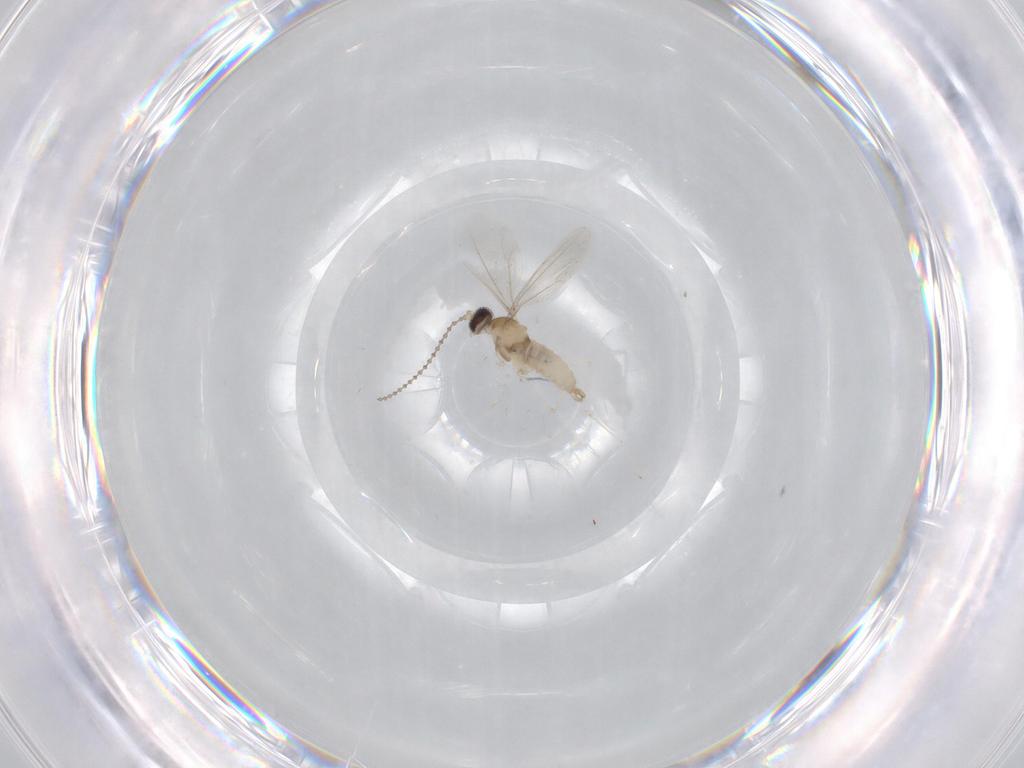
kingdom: Animalia
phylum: Arthropoda
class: Insecta
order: Diptera
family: Cecidomyiidae
